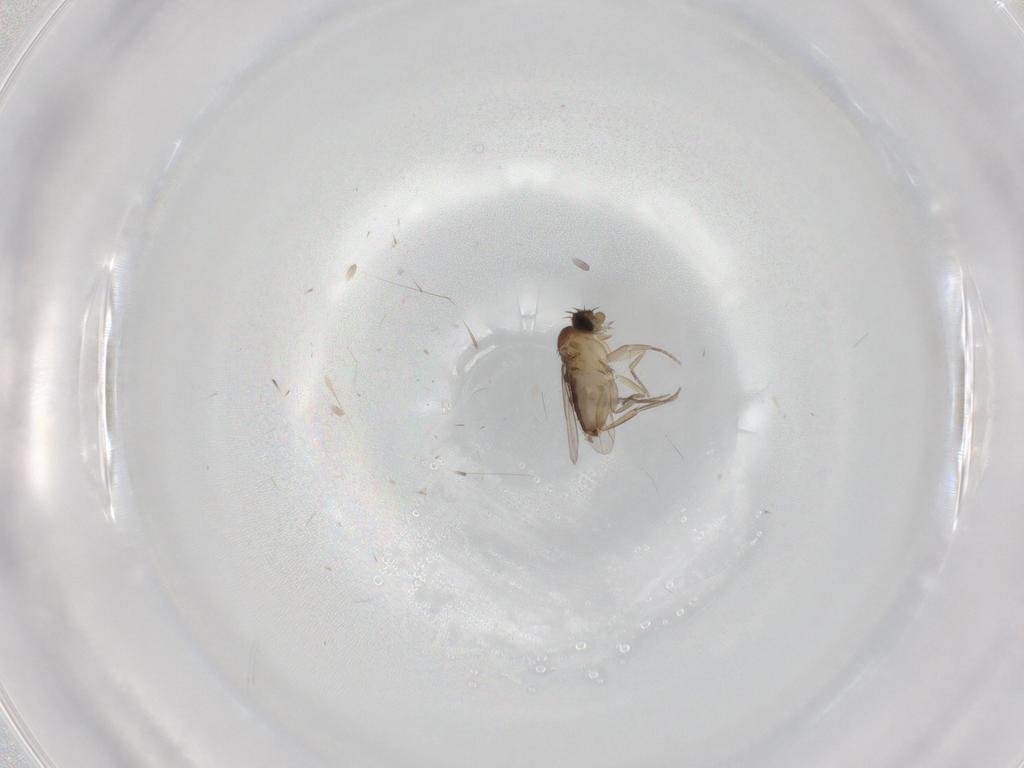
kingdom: Animalia
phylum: Arthropoda
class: Insecta
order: Diptera
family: Phoridae
